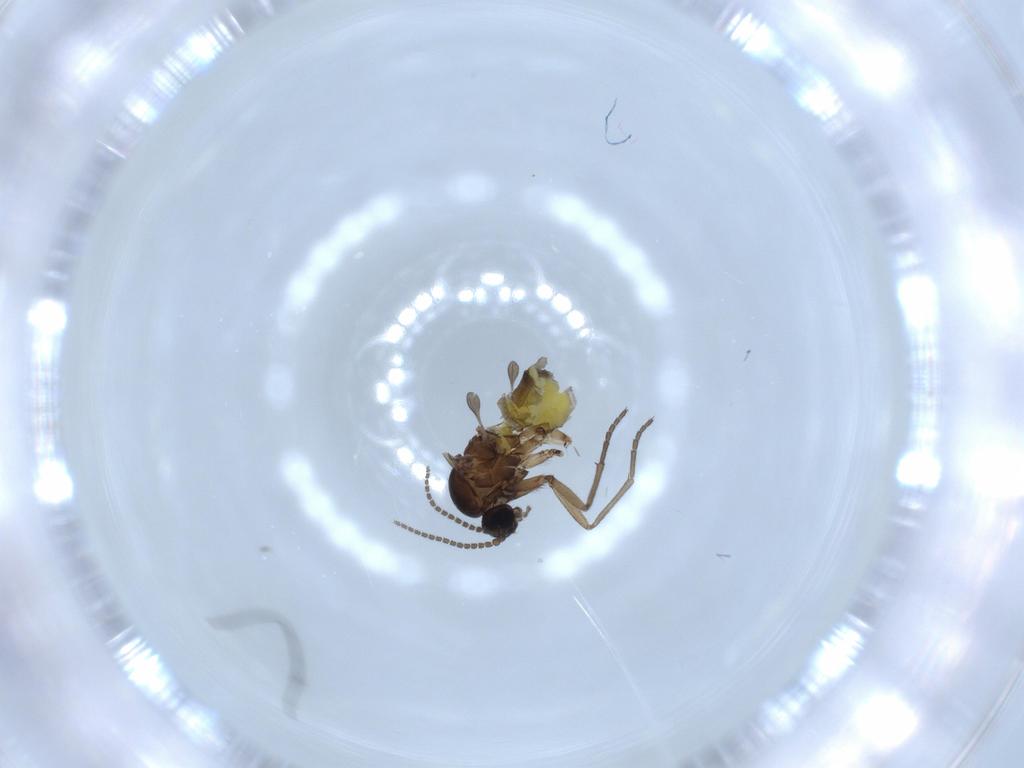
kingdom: Animalia
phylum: Arthropoda
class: Insecta
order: Diptera
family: Sciaridae
